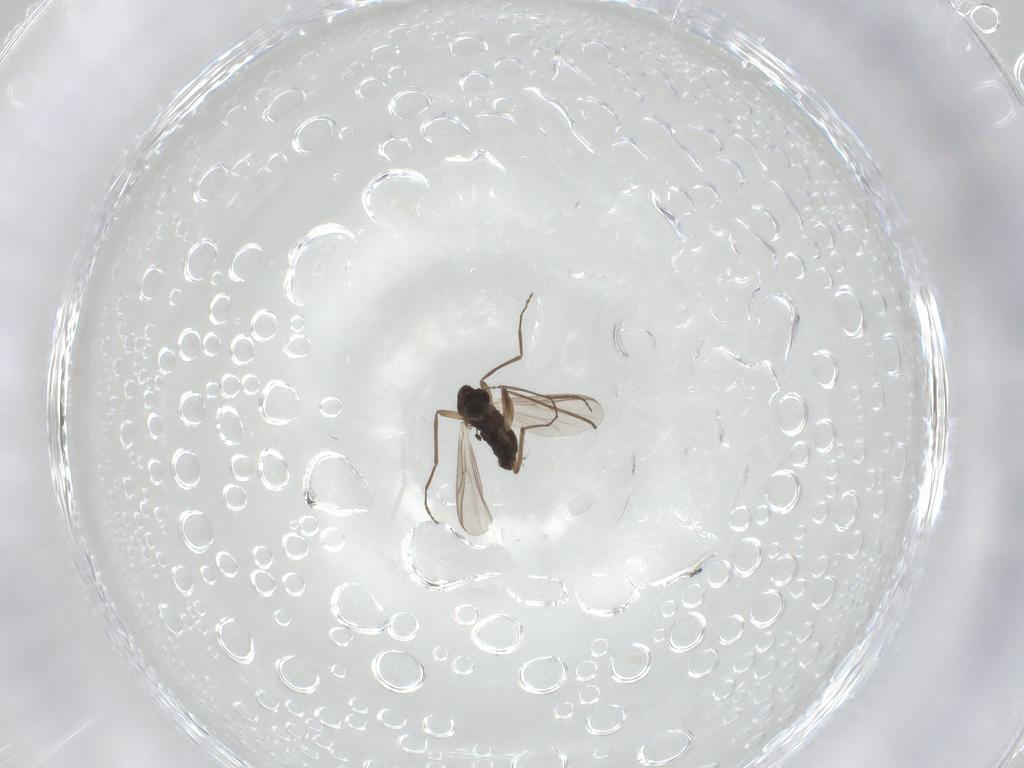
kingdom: Animalia
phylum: Arthropoda
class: Insecta
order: Diptera
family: Chironomidae
